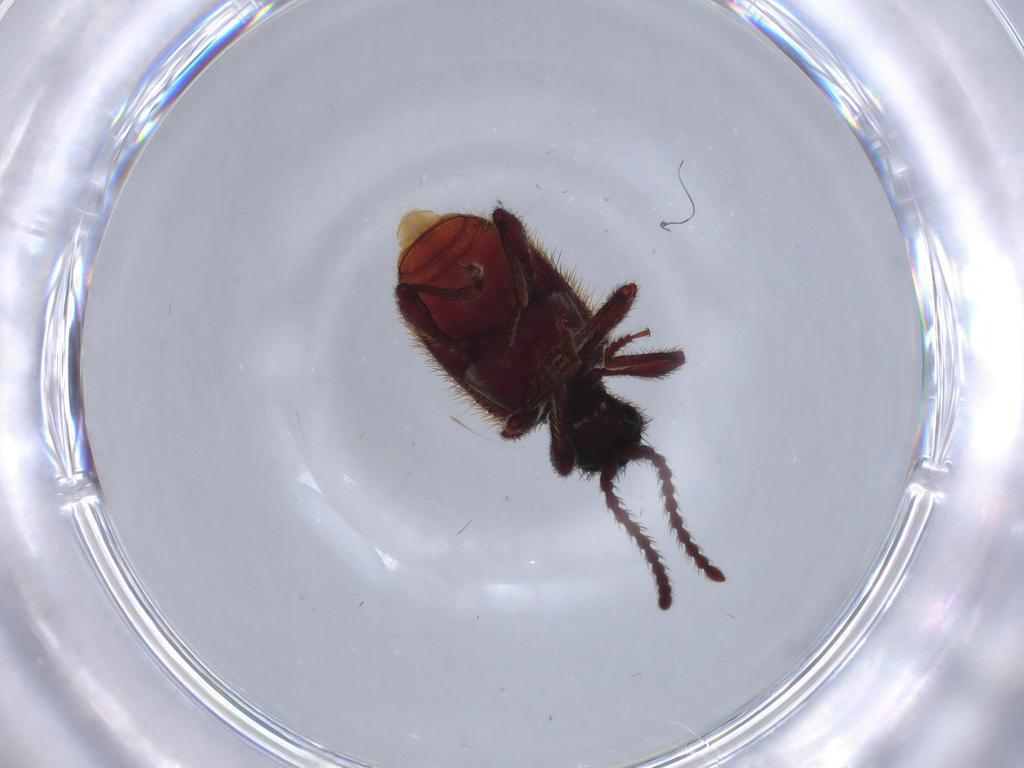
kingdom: Animalia
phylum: Arthropoda
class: Insecta
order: Coleoptera
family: Ptinidae
